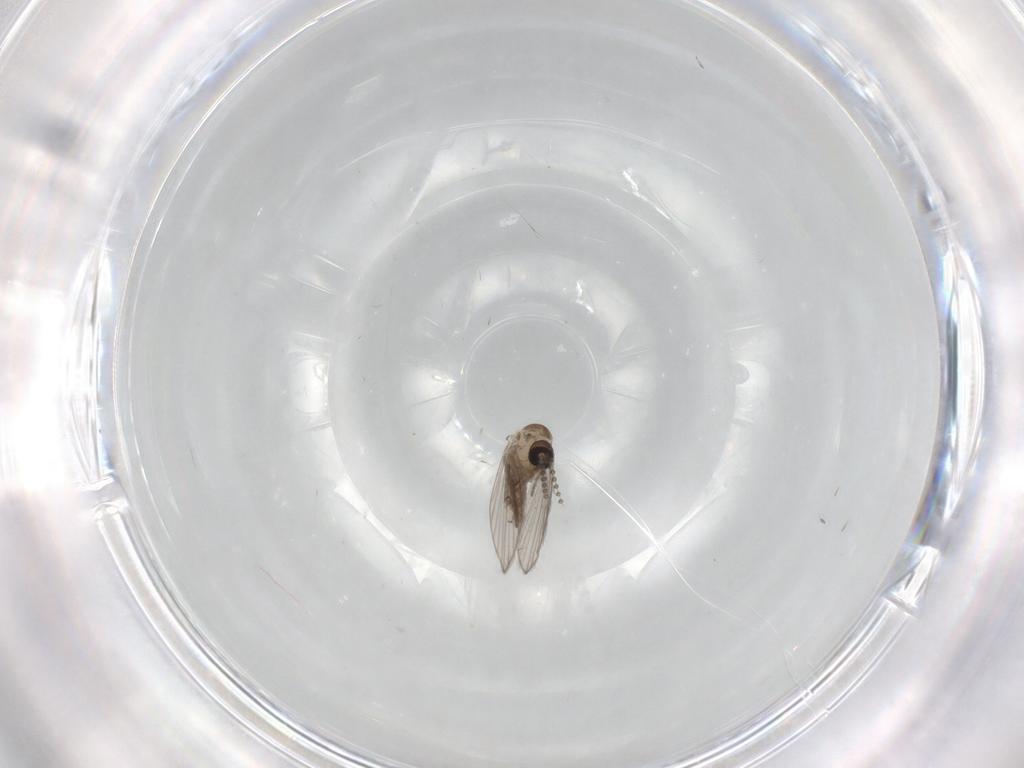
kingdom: Animalia
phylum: Arthropoda
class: Insecta
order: Diptera
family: Psychodidae
